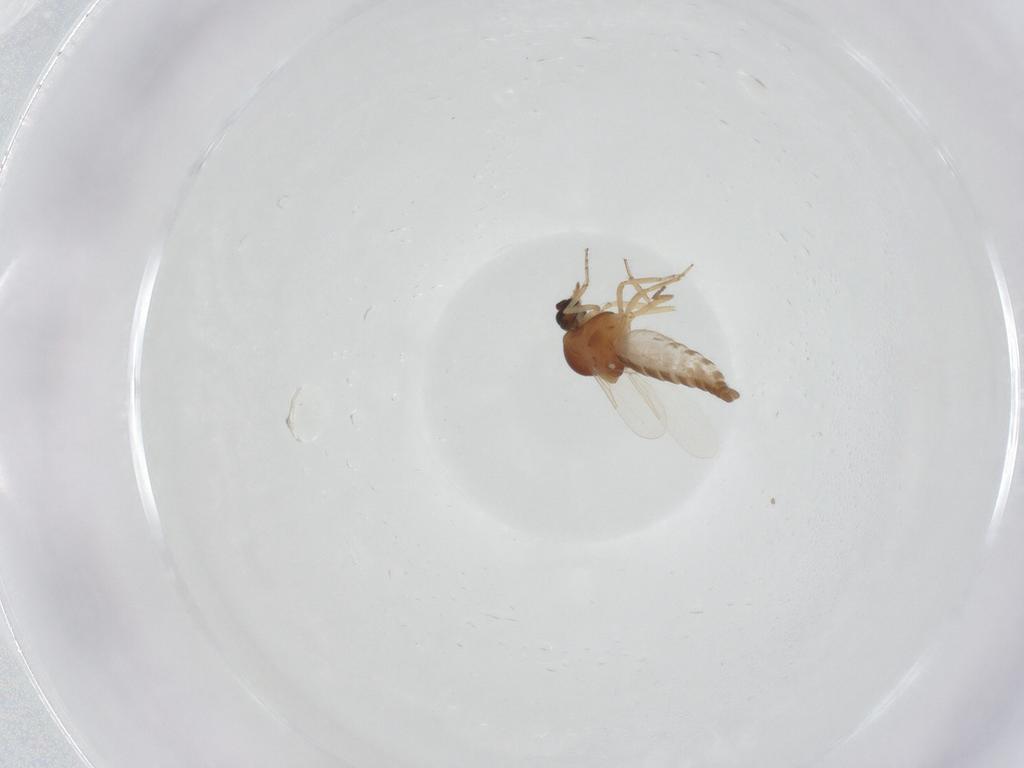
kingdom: Animalia
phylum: Arthropoda
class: Insecta
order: Diptera
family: Ceratopogonidae
